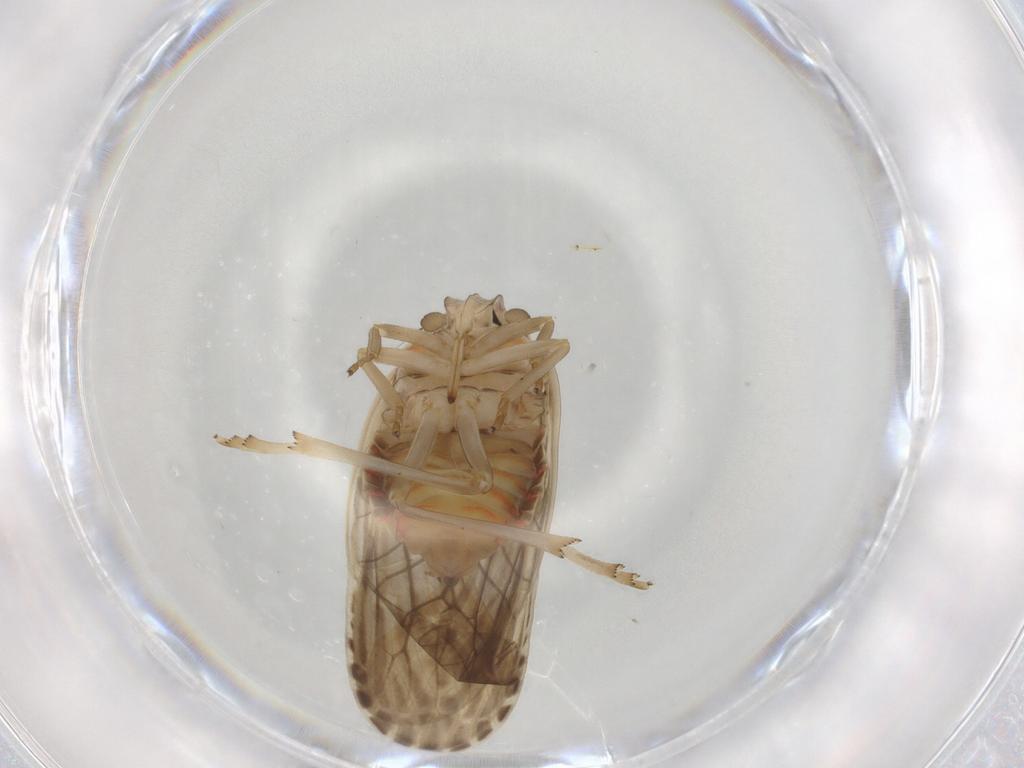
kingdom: Animalia
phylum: Arthropoda
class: Insecta
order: Hemiptera
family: Achilidae
